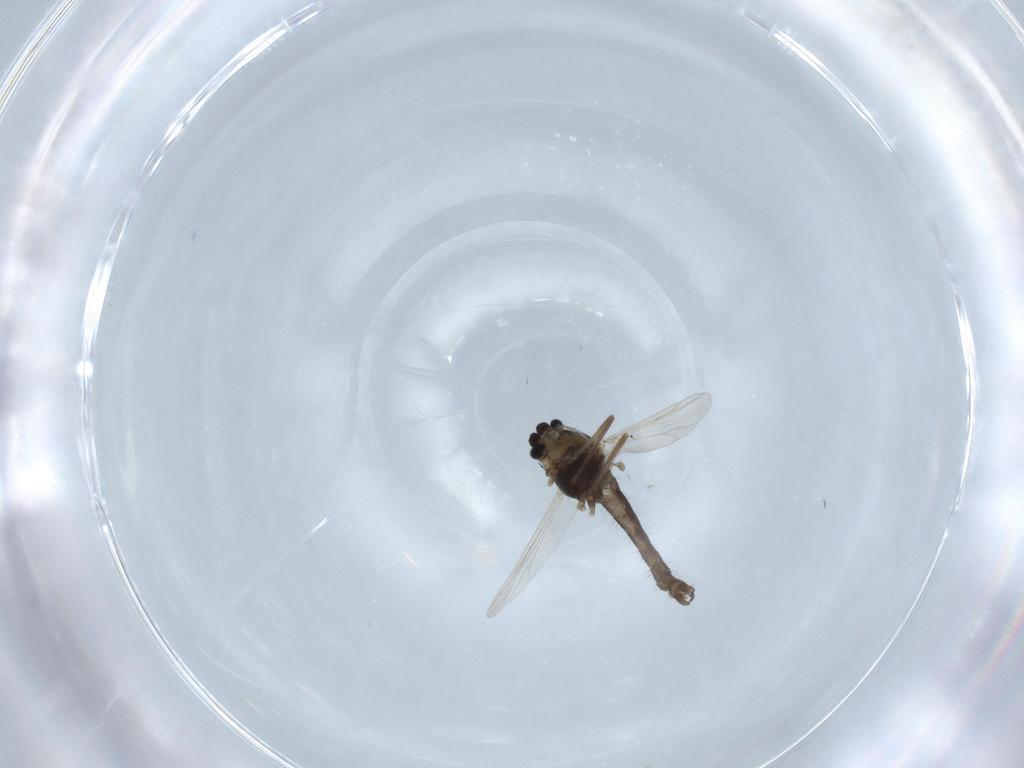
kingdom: Animalia
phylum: Arthropoda
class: Insecta
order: Diptera
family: Chironomidae
